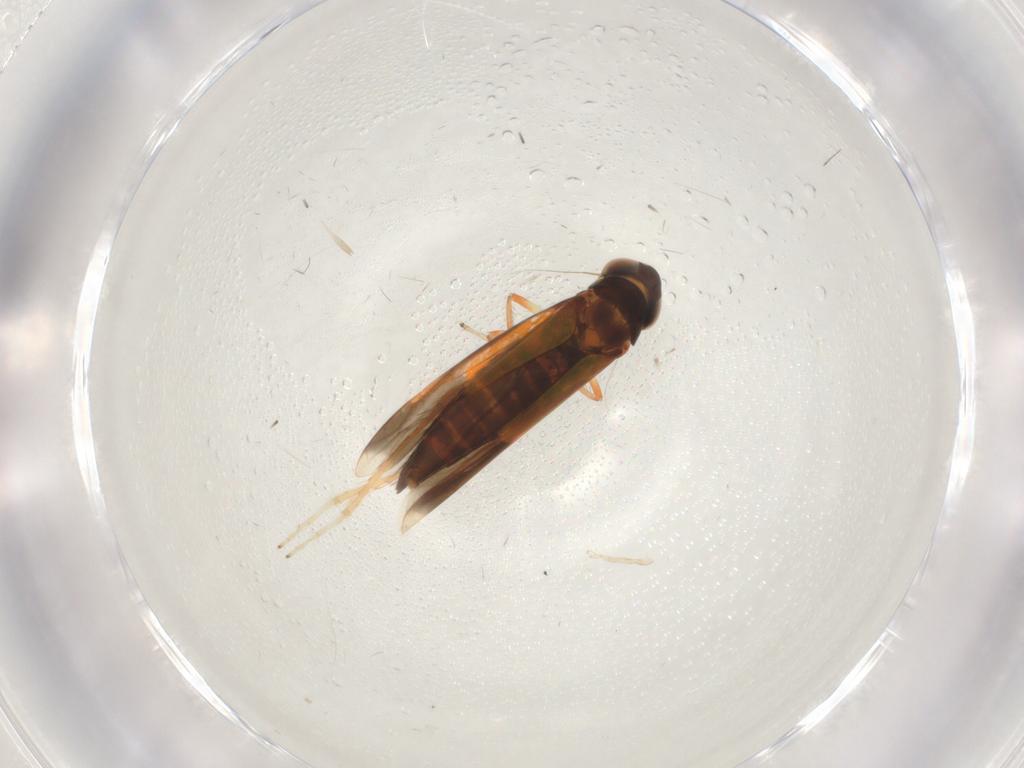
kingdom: Animalia
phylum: Arthropoda
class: Insecta
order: Hemiptera
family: Cicadellidae
